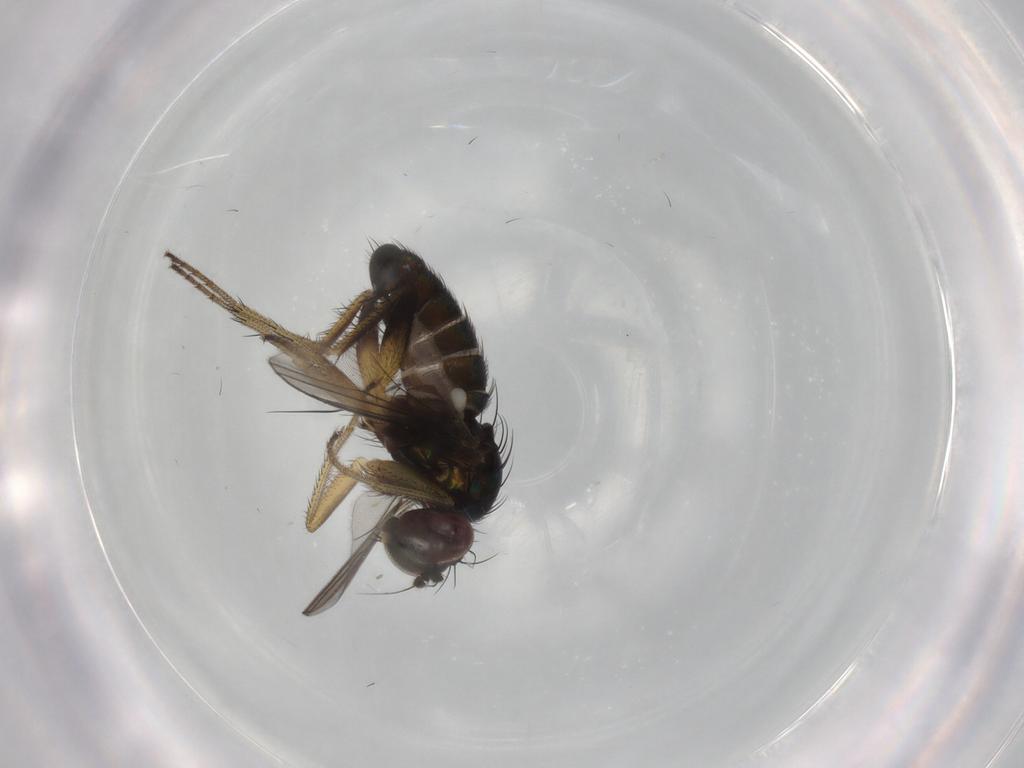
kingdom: Animalia
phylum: Arthropoda
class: Insecta
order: Diptera
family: Dolichopodidae
